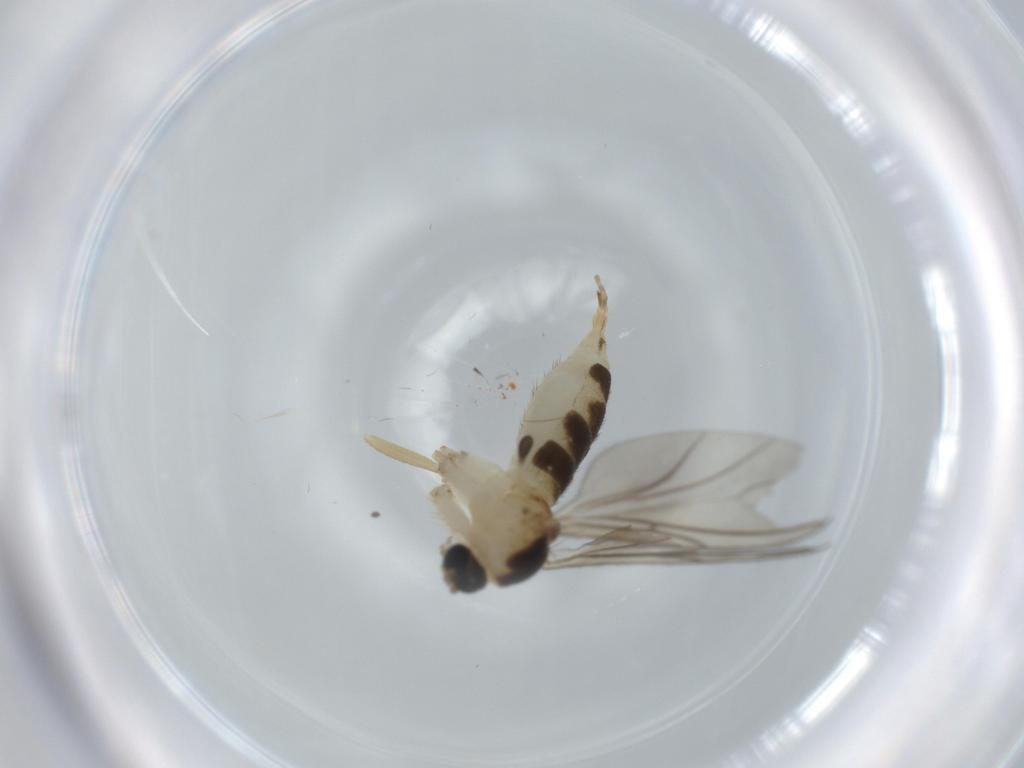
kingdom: Animalia
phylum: Arthropoda
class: Insecta
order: Diptera
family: Sciaridae
